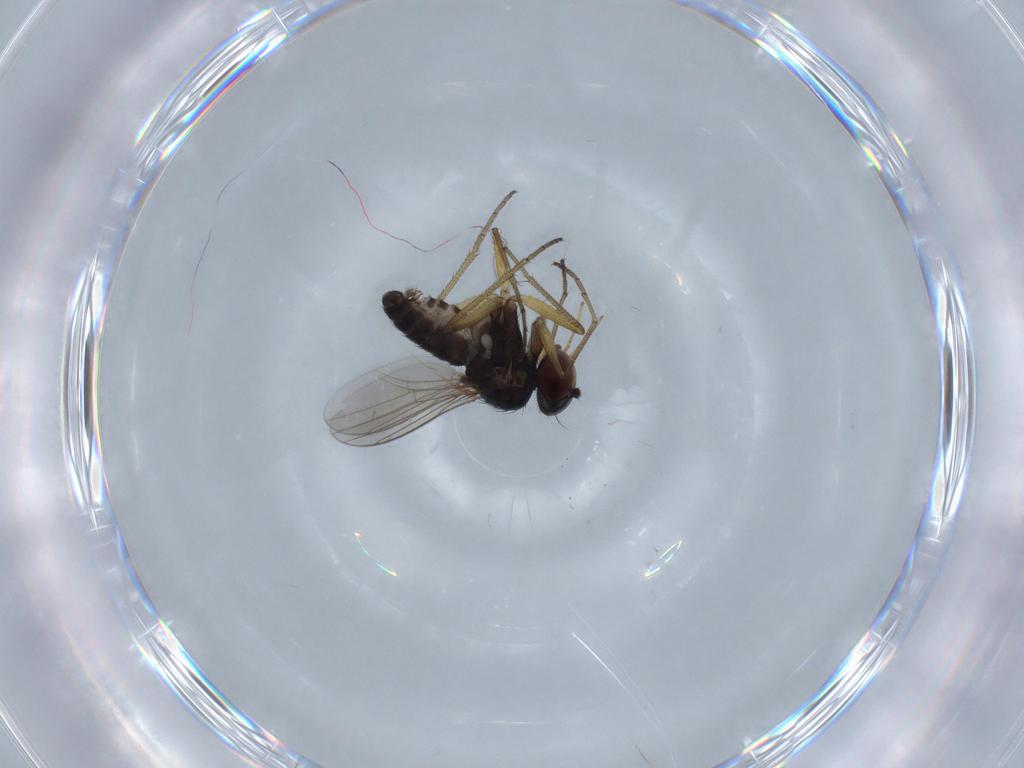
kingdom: Animalia
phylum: Arthropoda
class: Insecta
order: Diptera
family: Dolichopodidae
